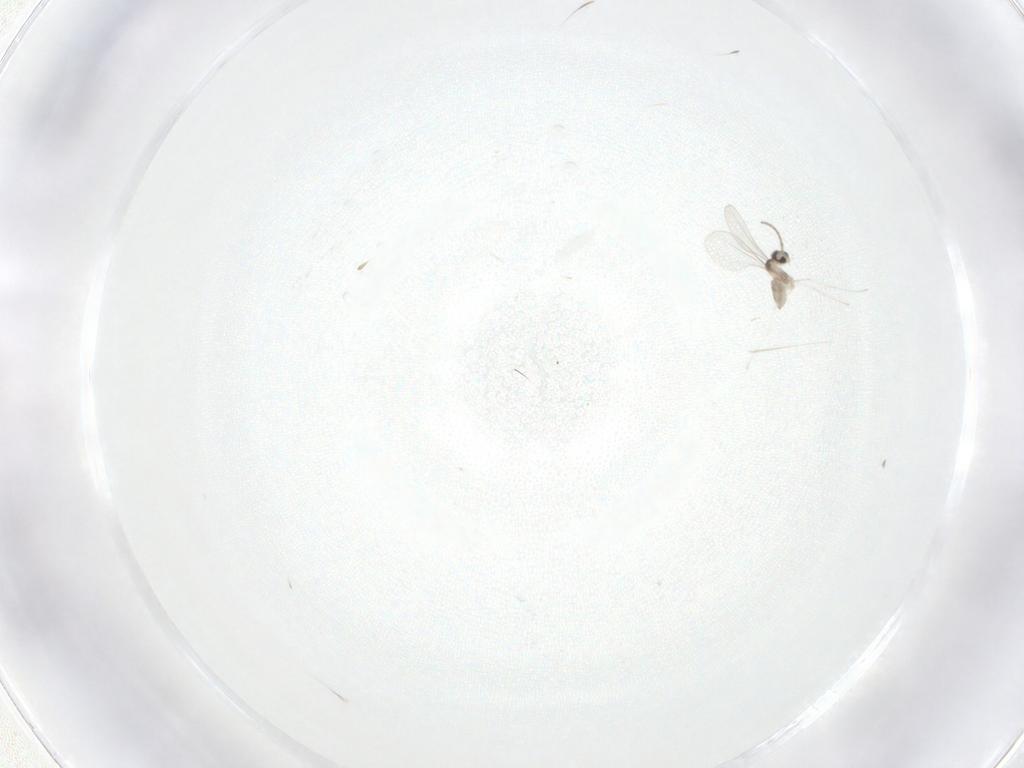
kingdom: Animalia
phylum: Arthropoda
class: Insecta
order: Diptera
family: Cecidomyiidae
